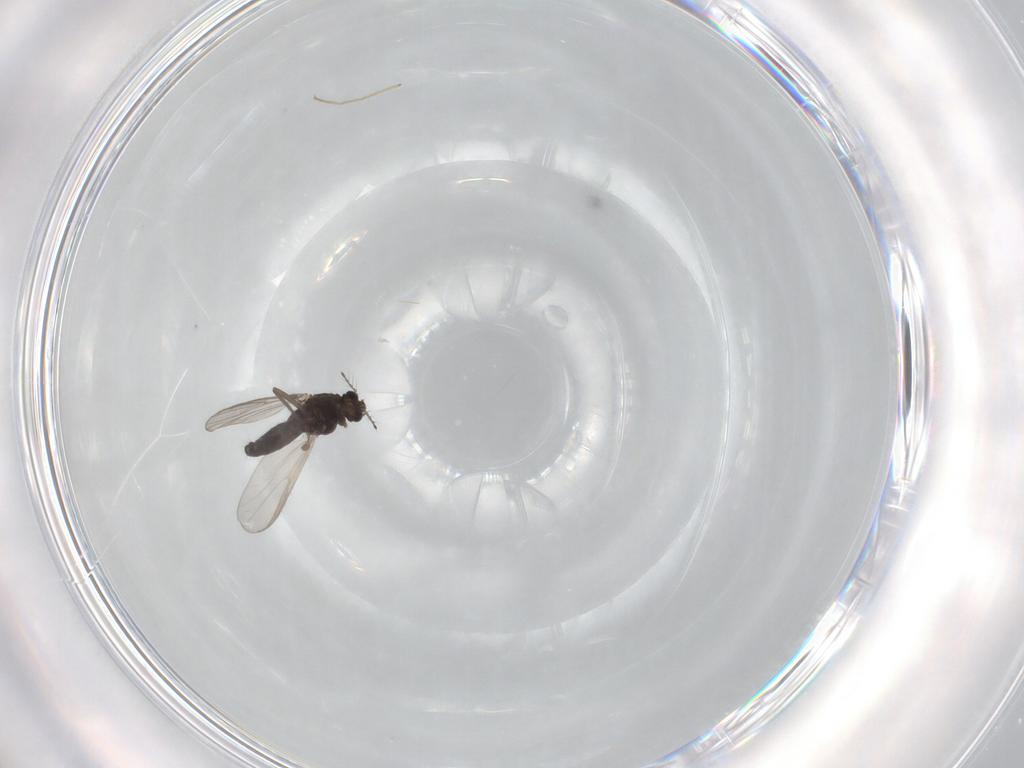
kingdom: Animalia
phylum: Arthropoda
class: Insecta
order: Diptera
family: Chironomidae
